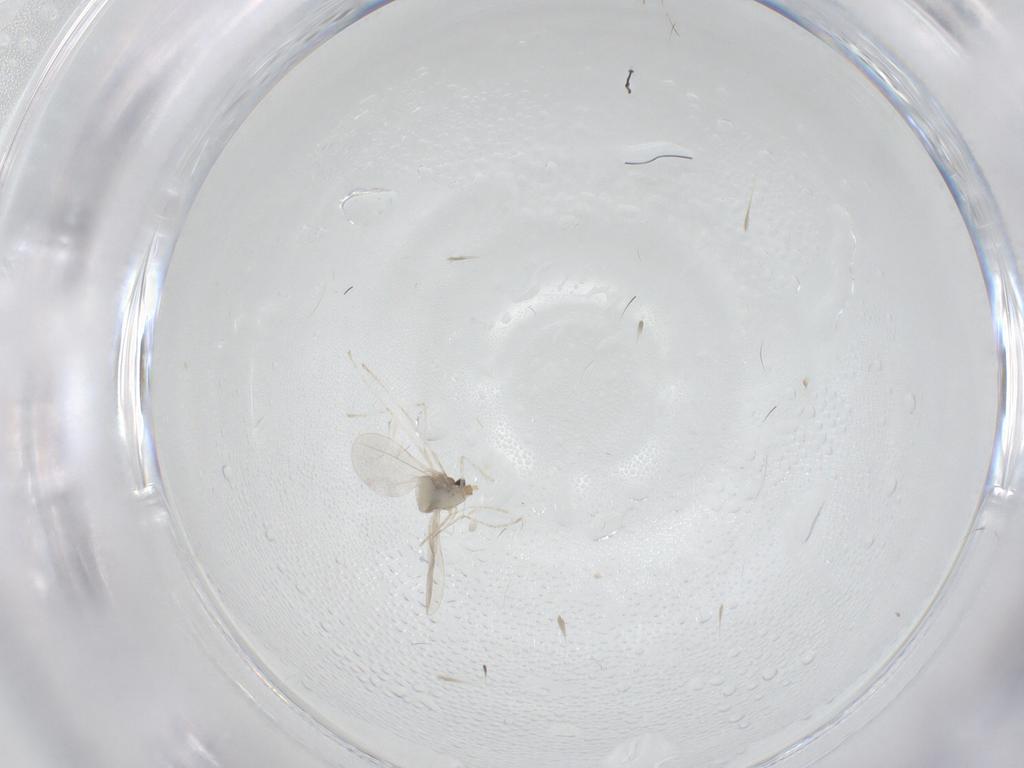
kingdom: Animalia
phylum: Arthropoda
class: Insecta
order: Diptera
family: Cecidomyiidae
